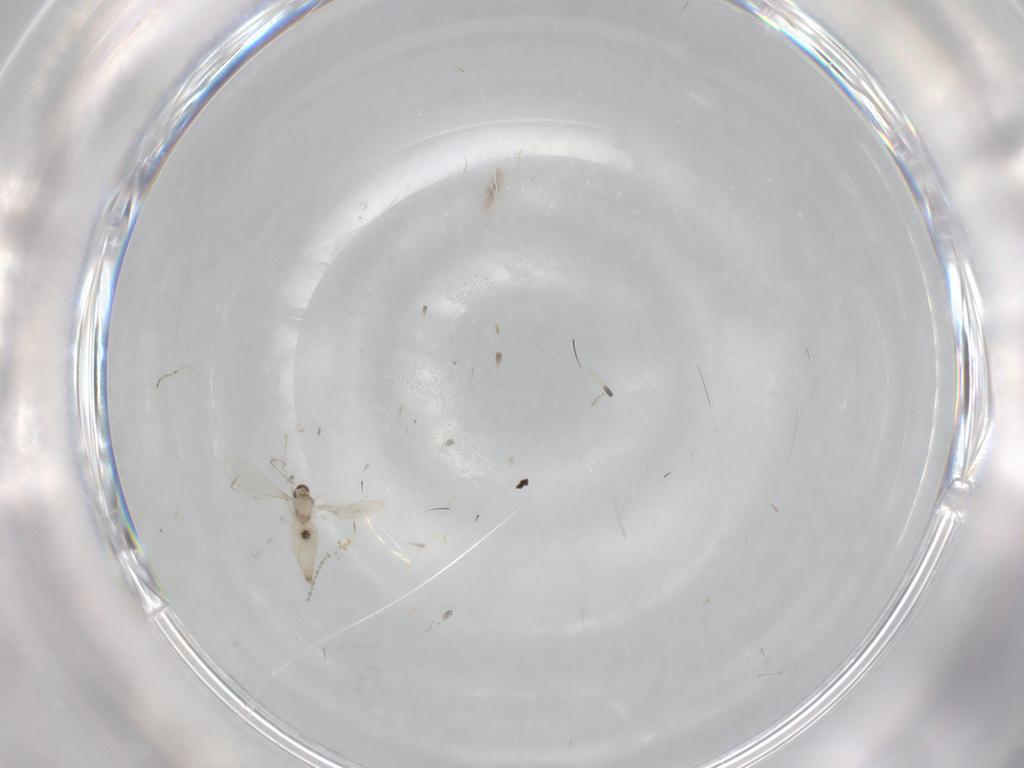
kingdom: Animalia
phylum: Arthropoda
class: Insecta
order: Diptera
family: Cecidomyiidae
